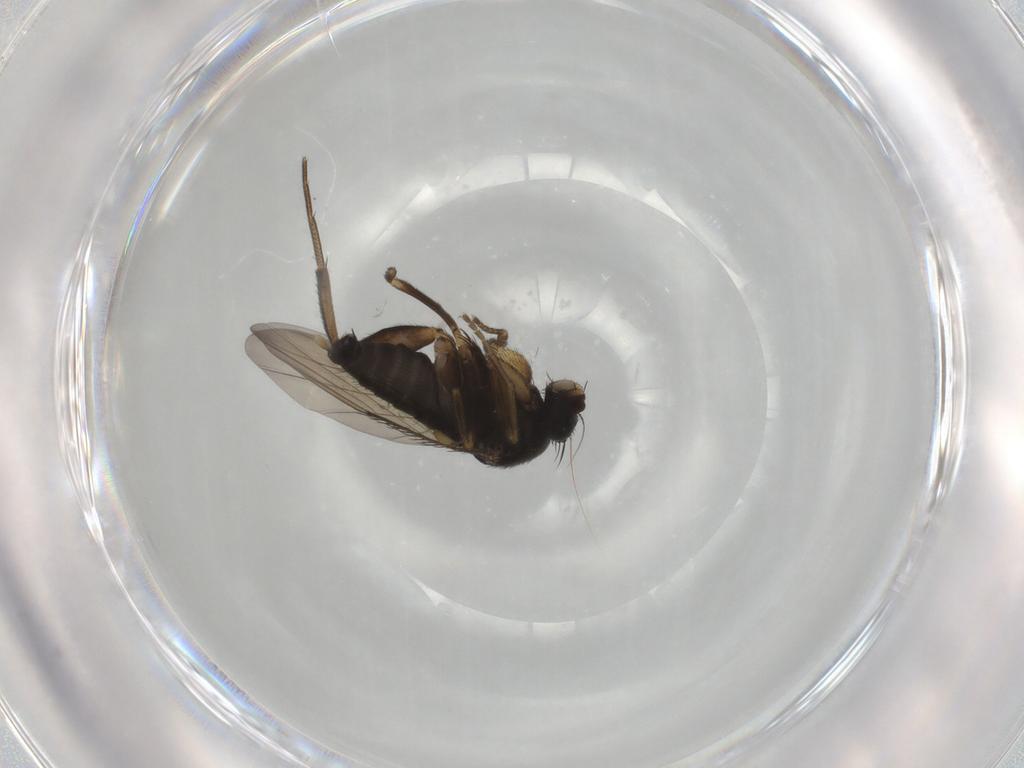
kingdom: Animalia
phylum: Arthropoda
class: Insecta
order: Diptera
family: Phoridae
